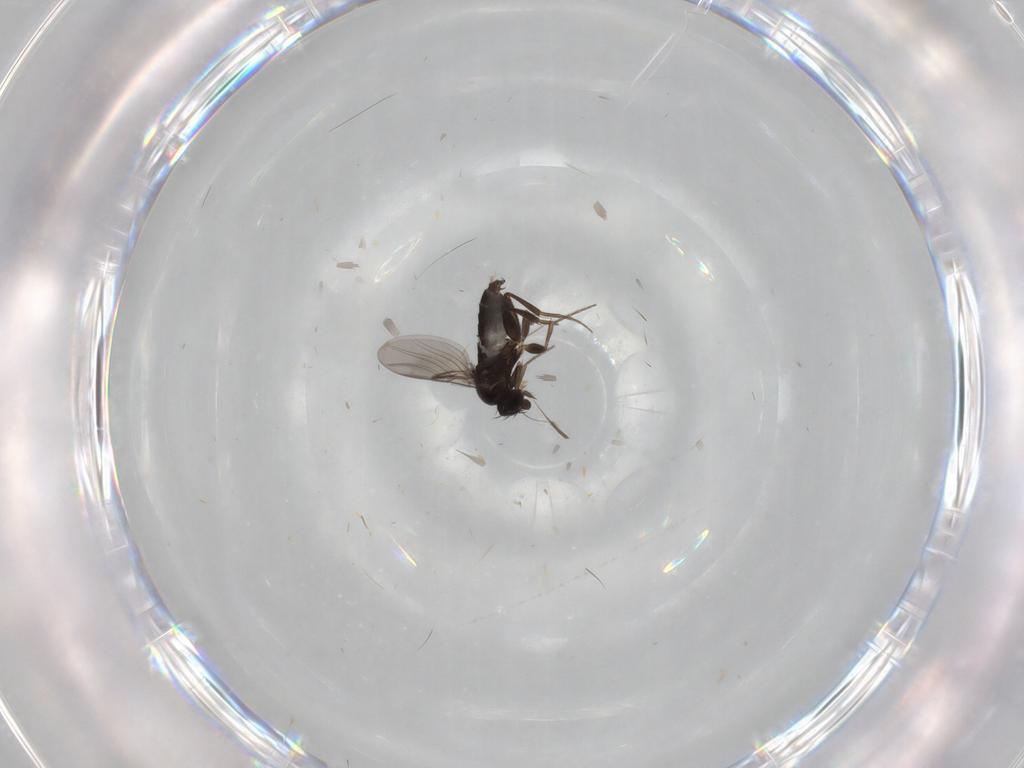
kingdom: Animalia
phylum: Arthropoda
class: Insecta
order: Diptera
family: Phoridae
